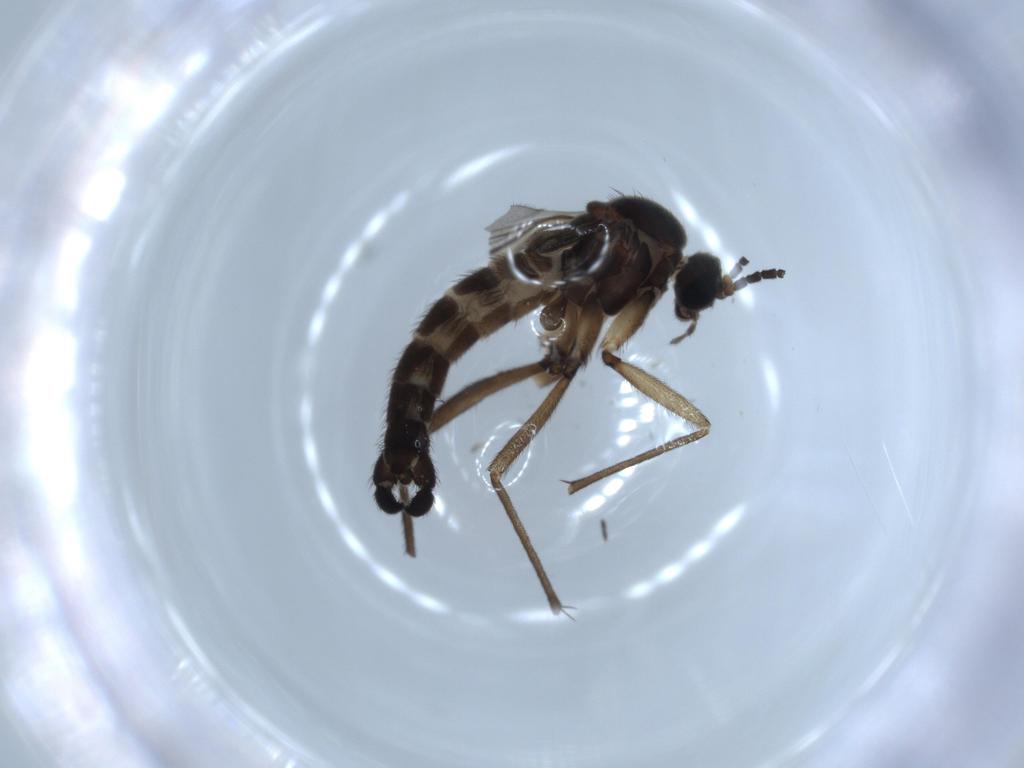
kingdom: Animalia
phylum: Arthropoda
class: Insecta
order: Diptera
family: Sciaridae
